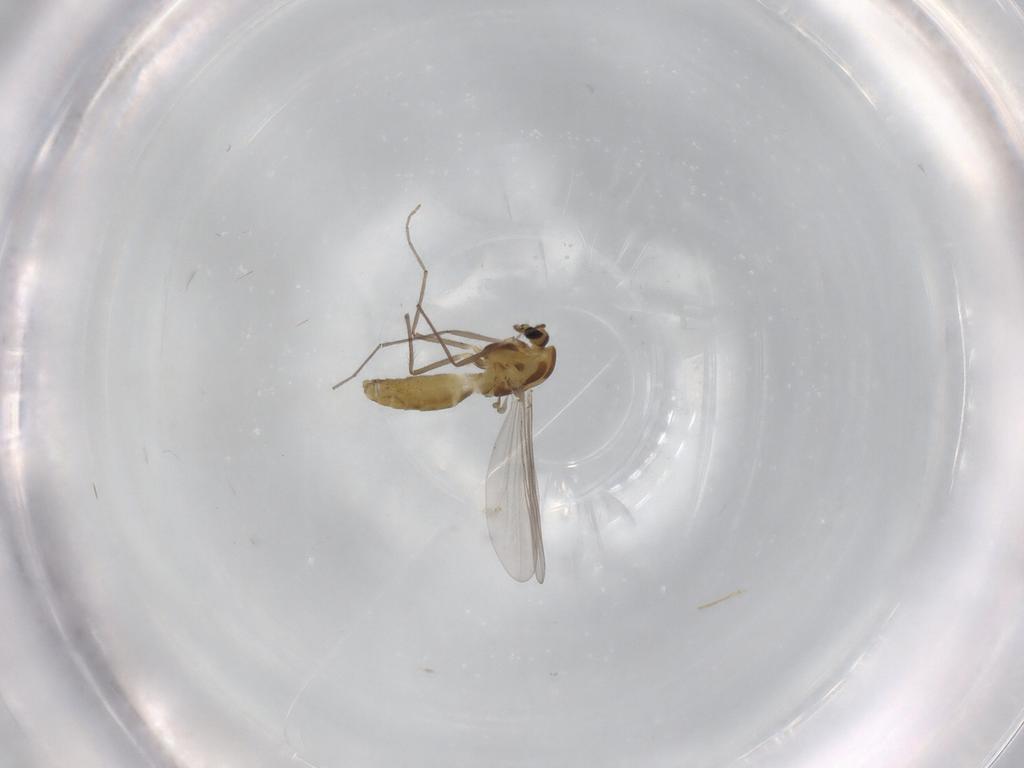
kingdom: Animalia
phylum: Arthropoda
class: Insecta
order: Diptera
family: Chironomidae
